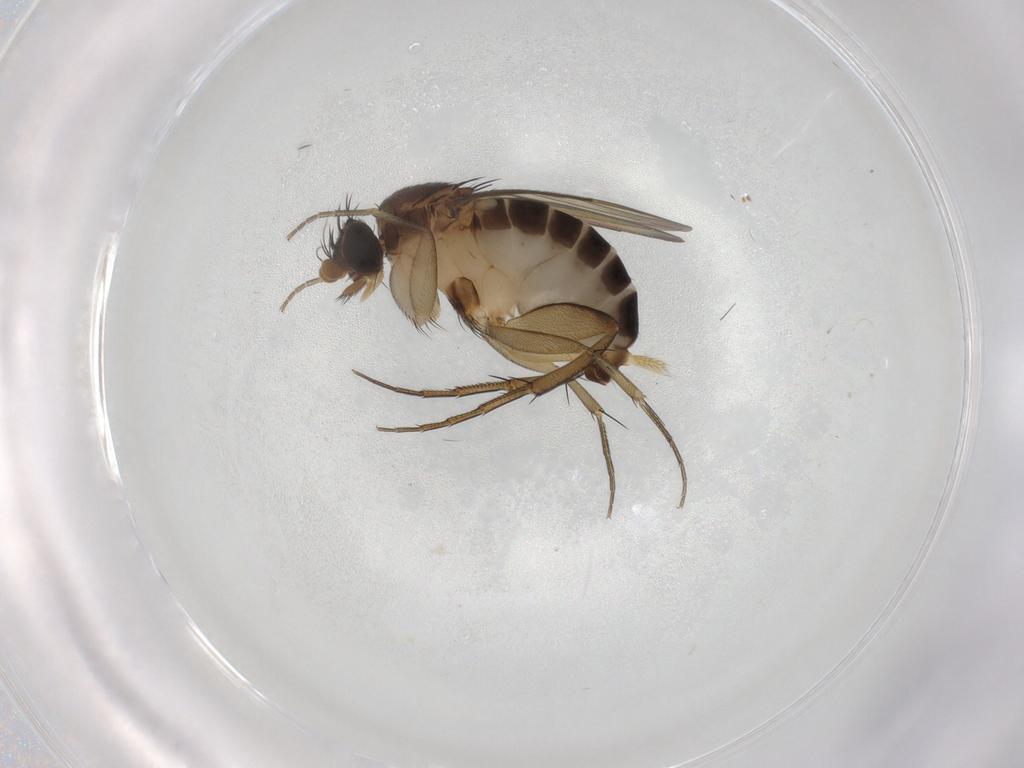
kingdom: Animalia
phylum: Arthropoda
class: Insecta
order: Diptera
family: Phoridae
